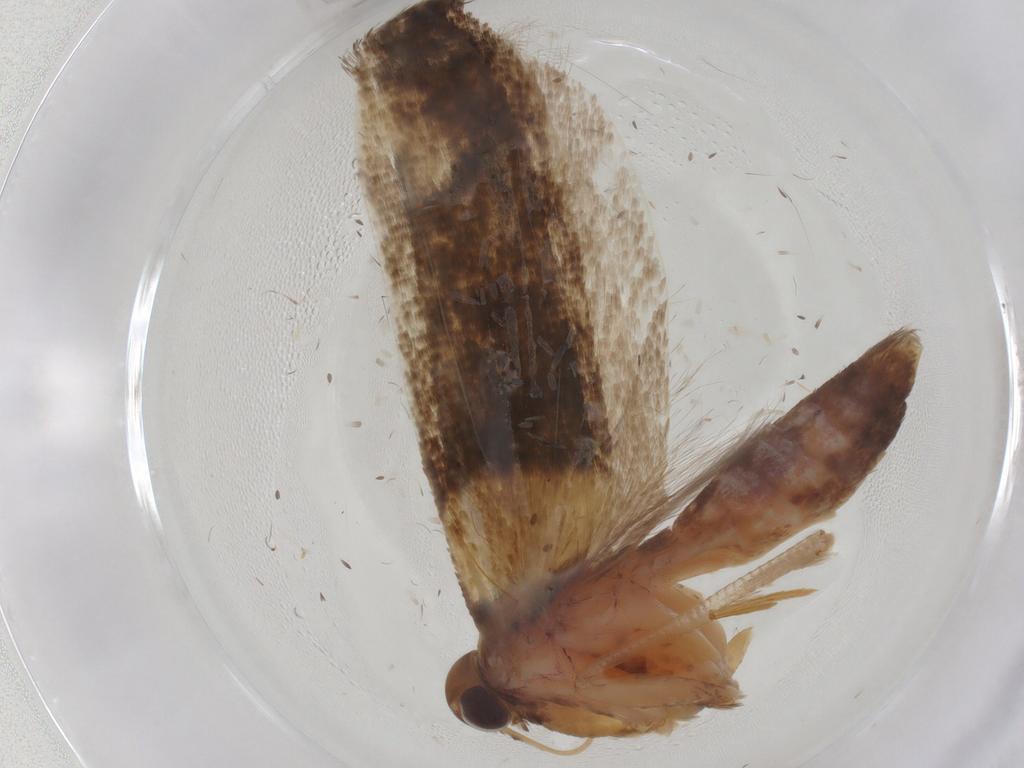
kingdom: Animalia
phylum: Arthropoda
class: Insecta
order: Lepidoptera
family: Gelechiidae
